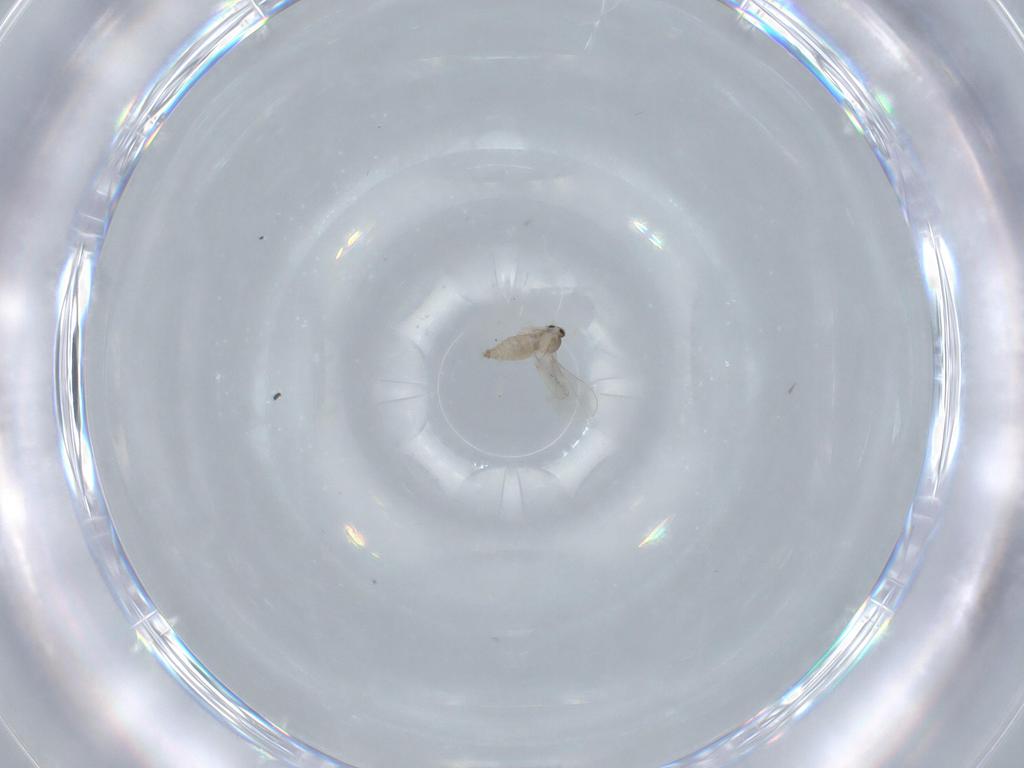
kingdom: Animalia
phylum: Arthropoda
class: Insecta
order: Diptera
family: Cecidomyiidae
